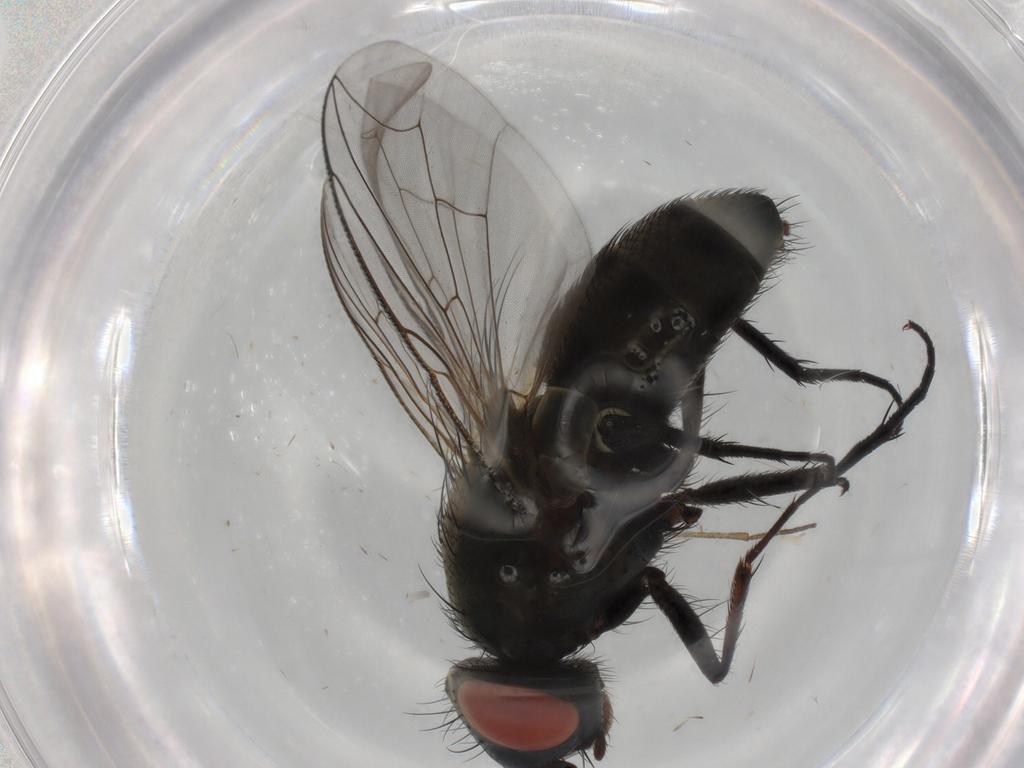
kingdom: Animalia
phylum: Arthropoda
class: Insecta
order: Diptera
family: Sarcophagidae
